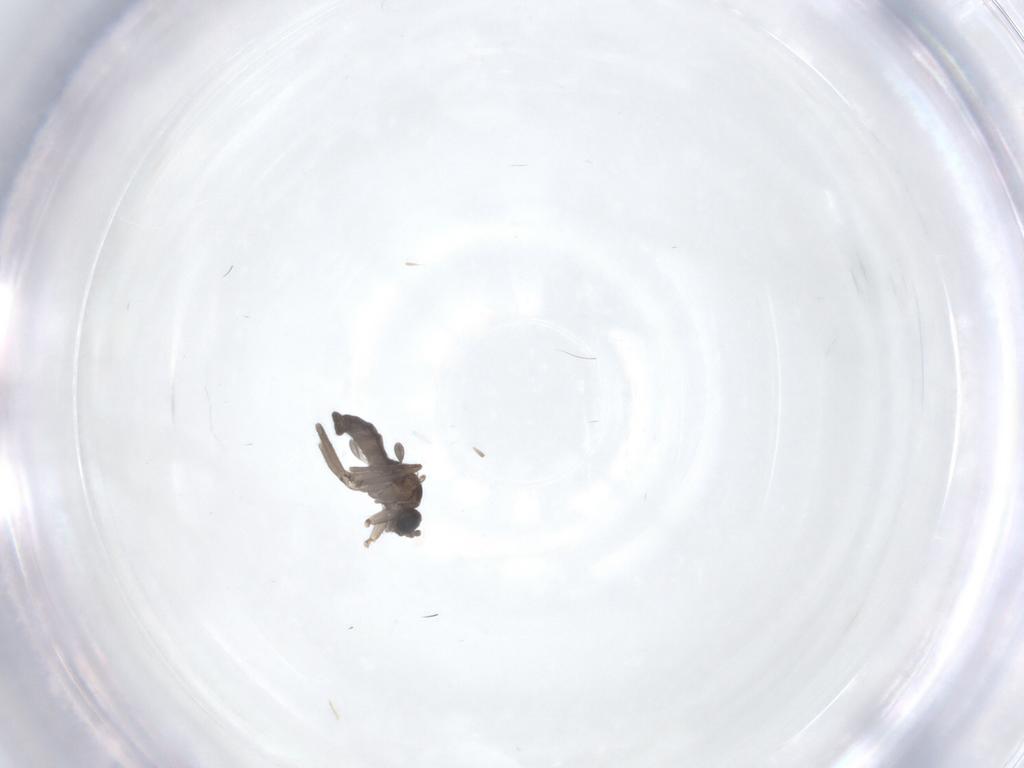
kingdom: Animalia
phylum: Arthropoda
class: Insecta
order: Diptera
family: Sciaridae
